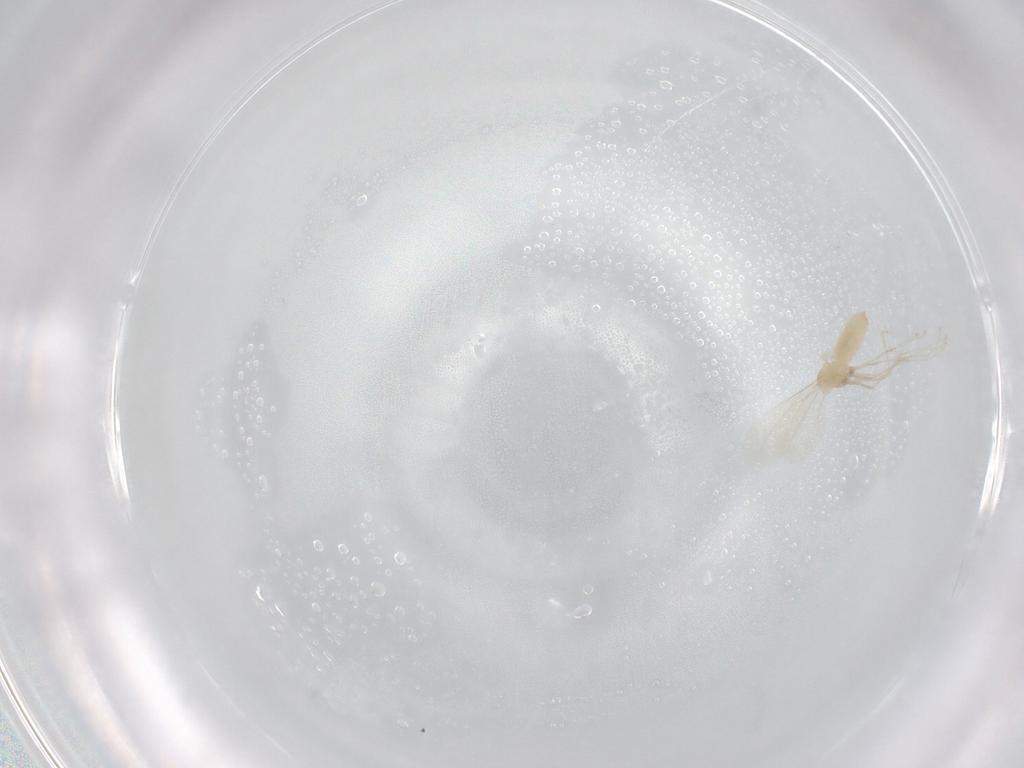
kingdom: Animalia
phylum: Arthropoda
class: Insecta
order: Diptera
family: Cecidomyiidae
